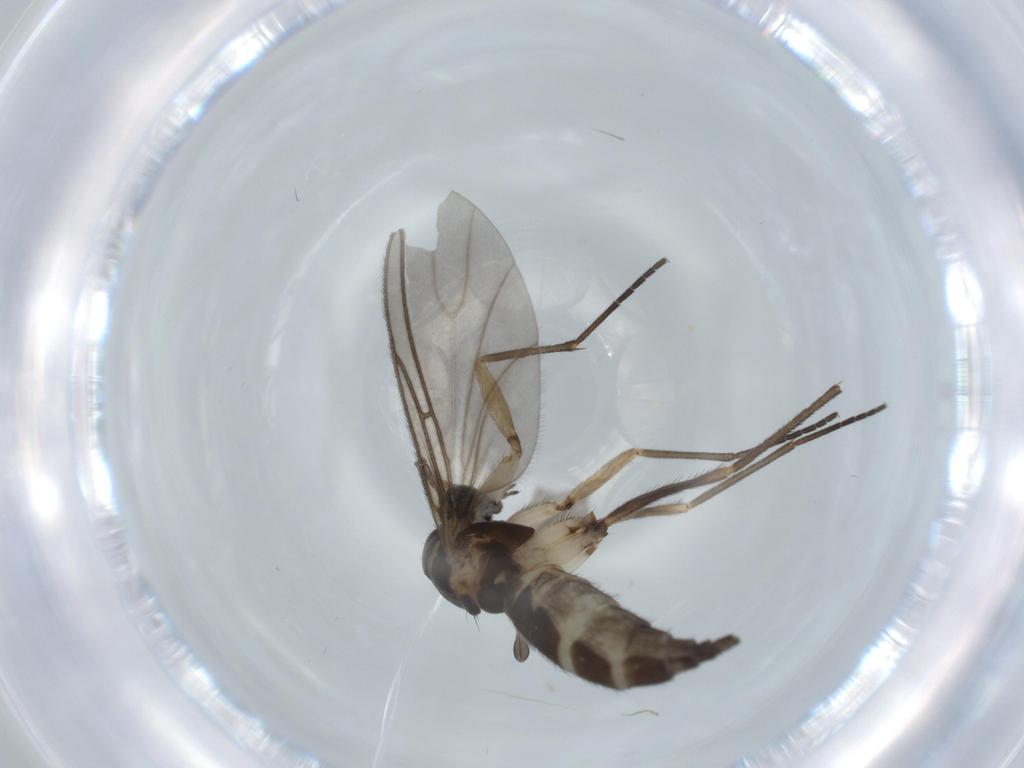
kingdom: Animalia
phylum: Arthropoda
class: Insecta
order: Diptera
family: Sciaridae
